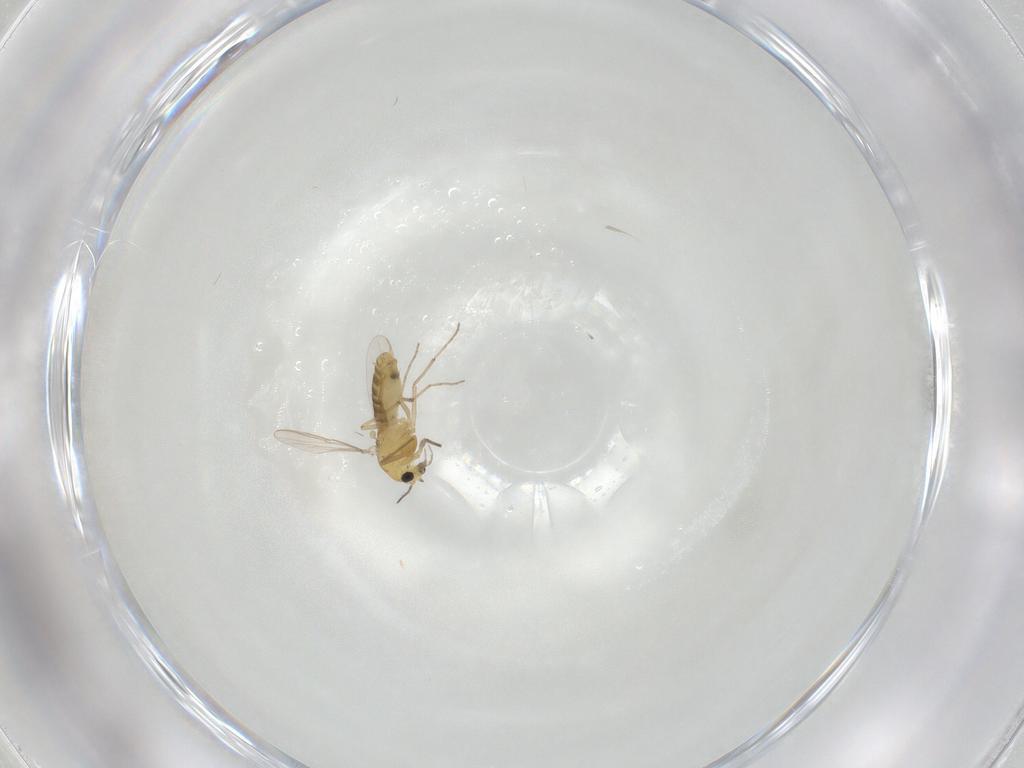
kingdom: Animalia
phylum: Arthropoda
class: Insecta
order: Diptera
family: Chironomidae
